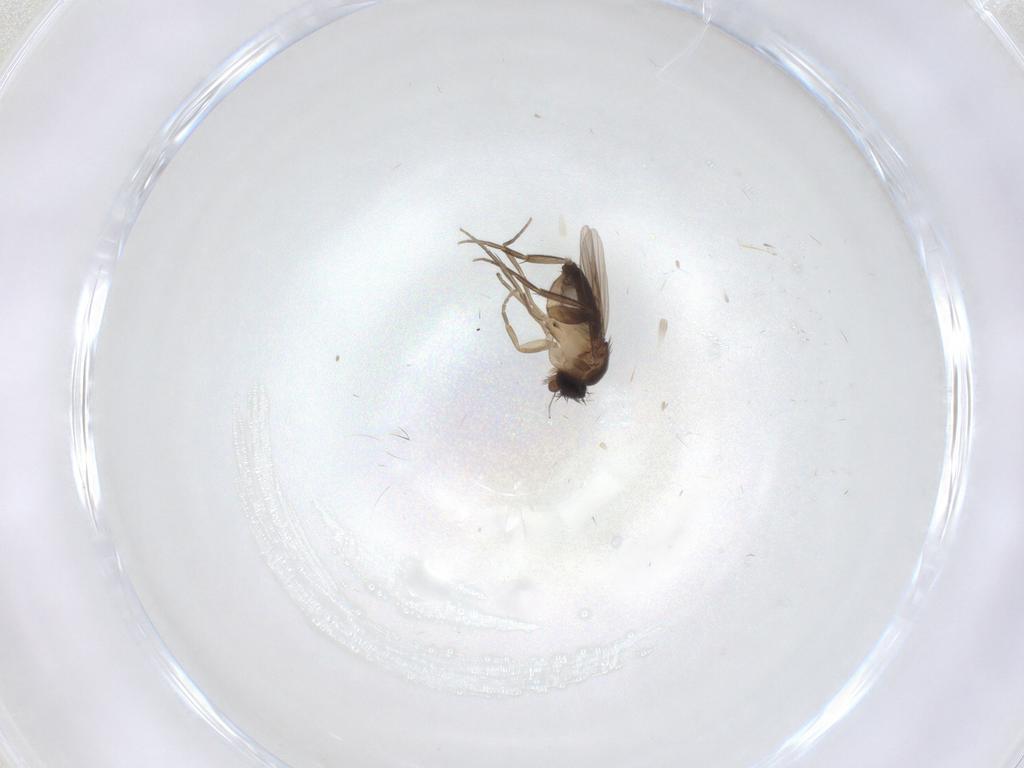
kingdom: Animalia
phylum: Arthropoda
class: Insecta
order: Diptera
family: Phoridae
